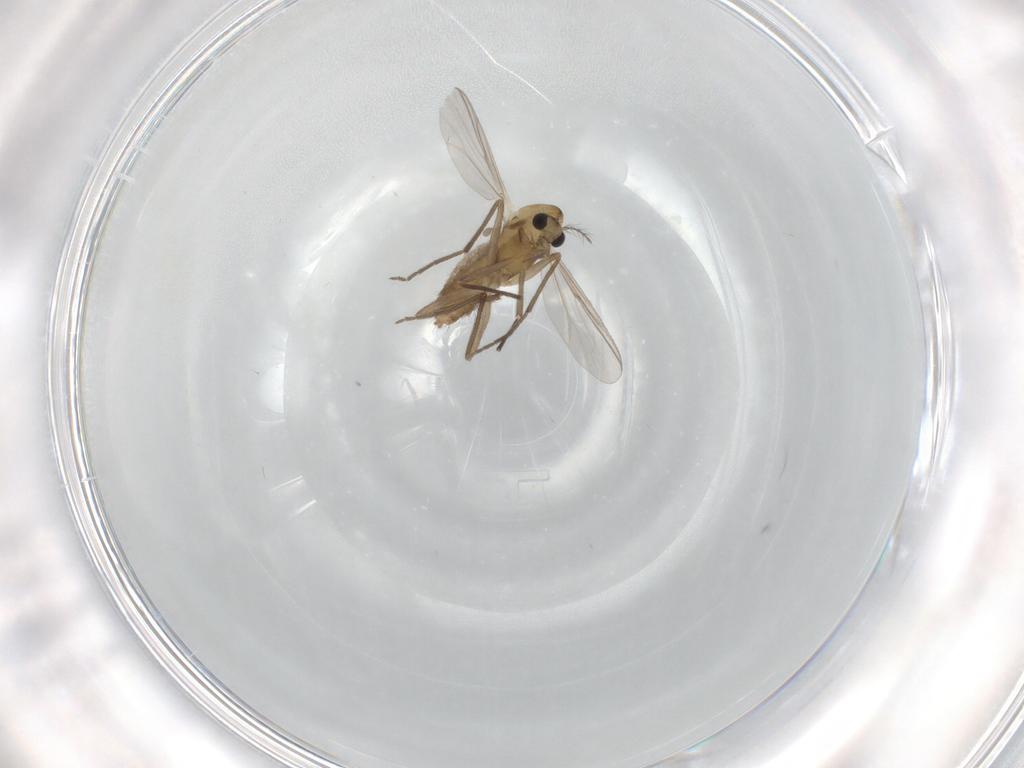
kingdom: Animalia
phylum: Arthropoda
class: Insecta
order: Diptera
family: Chironomidae
